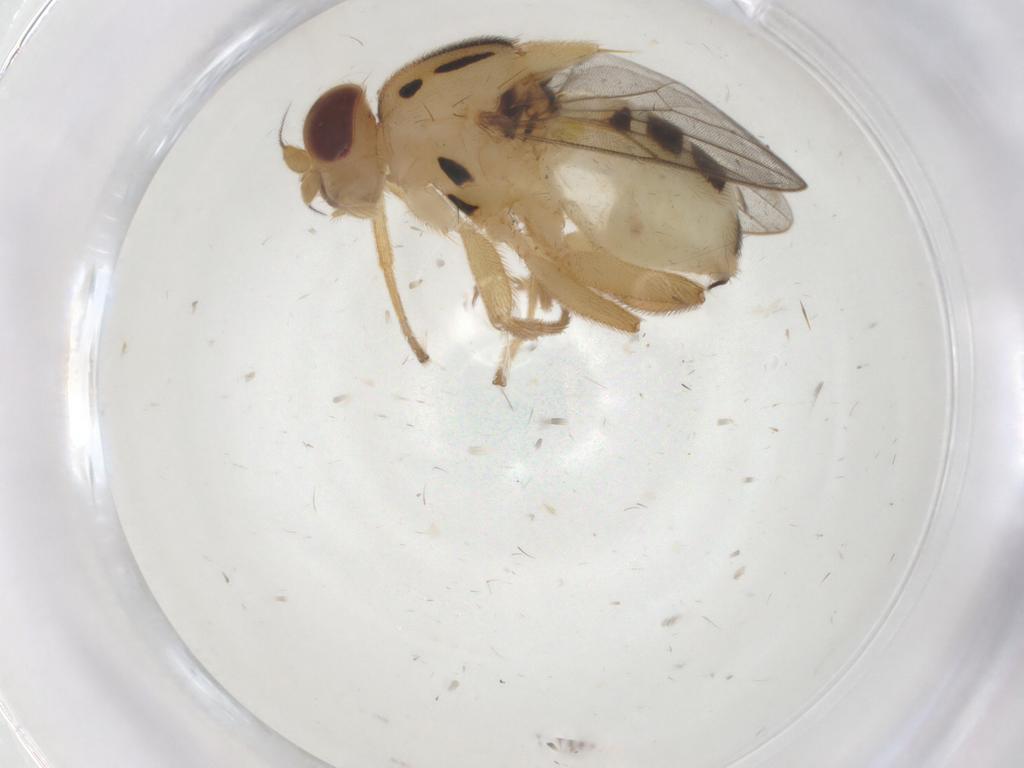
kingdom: Animalia
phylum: Arthropoda
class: Insecta
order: Diptera
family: Chloropidae
